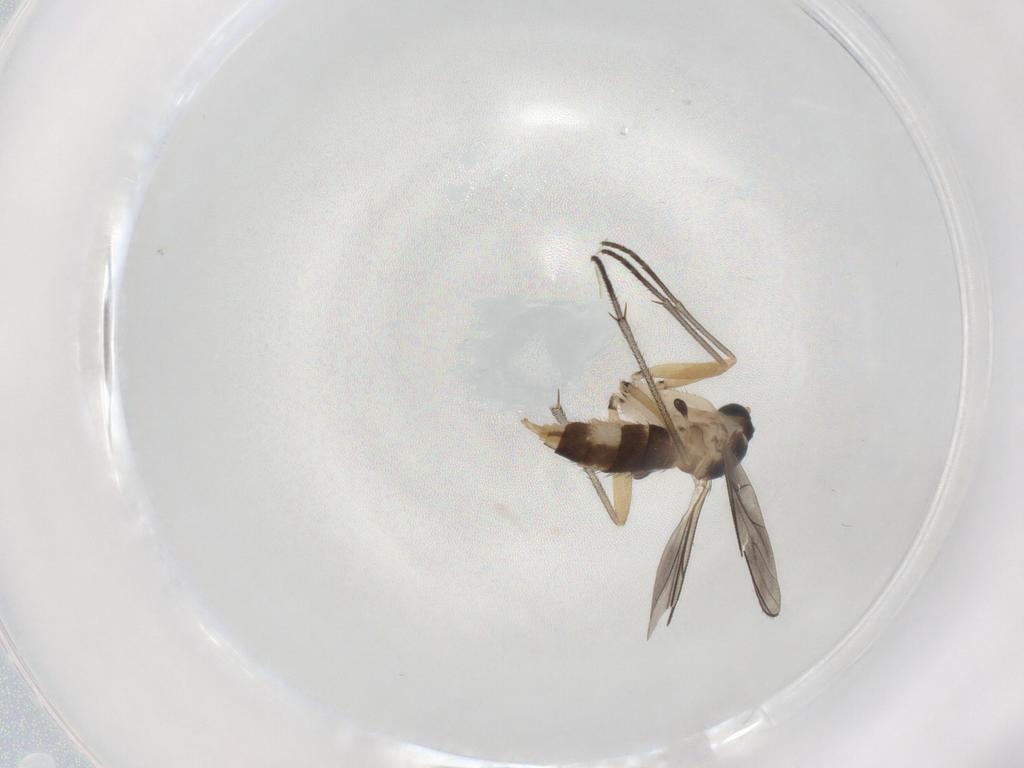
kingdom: Animalia
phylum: Arthropoda
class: Insecta
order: Diptera
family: Sciaridae
